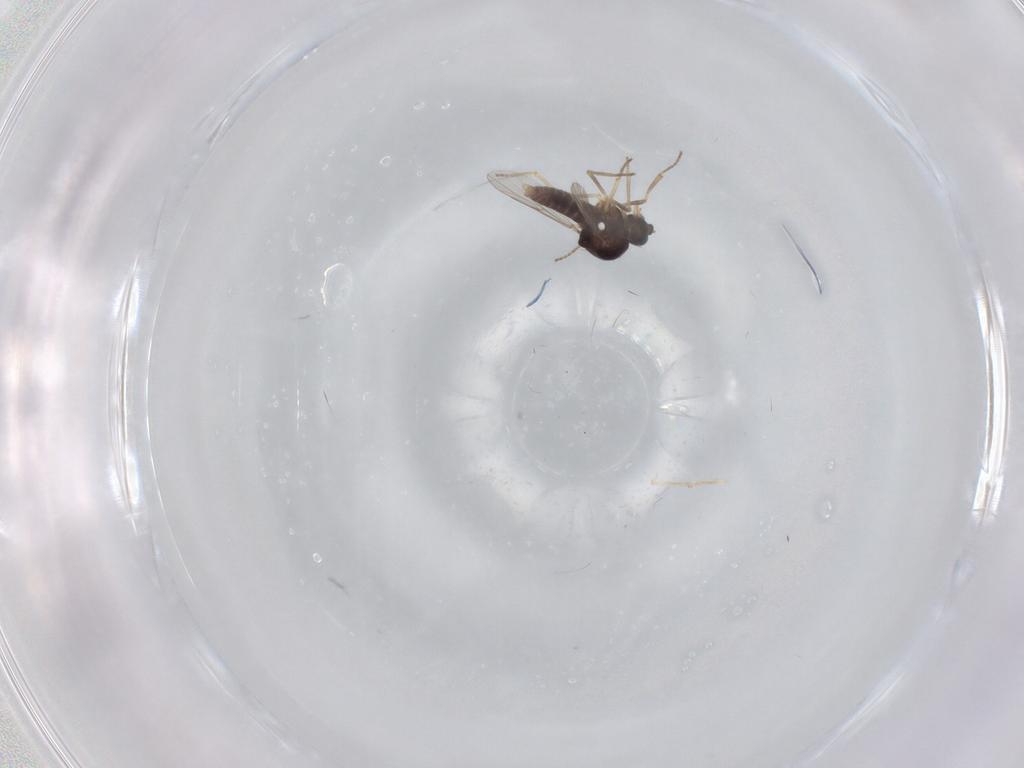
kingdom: Animalia
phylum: Arthropoda
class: Insecta
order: Diptera
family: Ceratopogonidae
